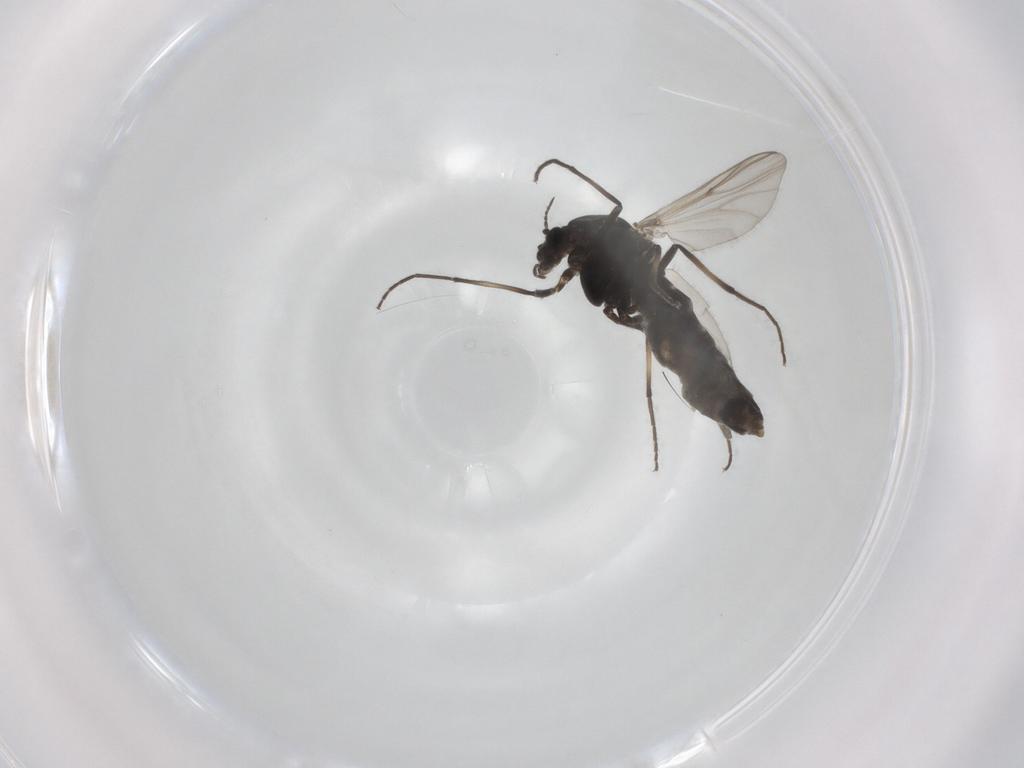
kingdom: Animalia
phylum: Arthropoda
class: Insecta
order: Diptera
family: Chironomidae
